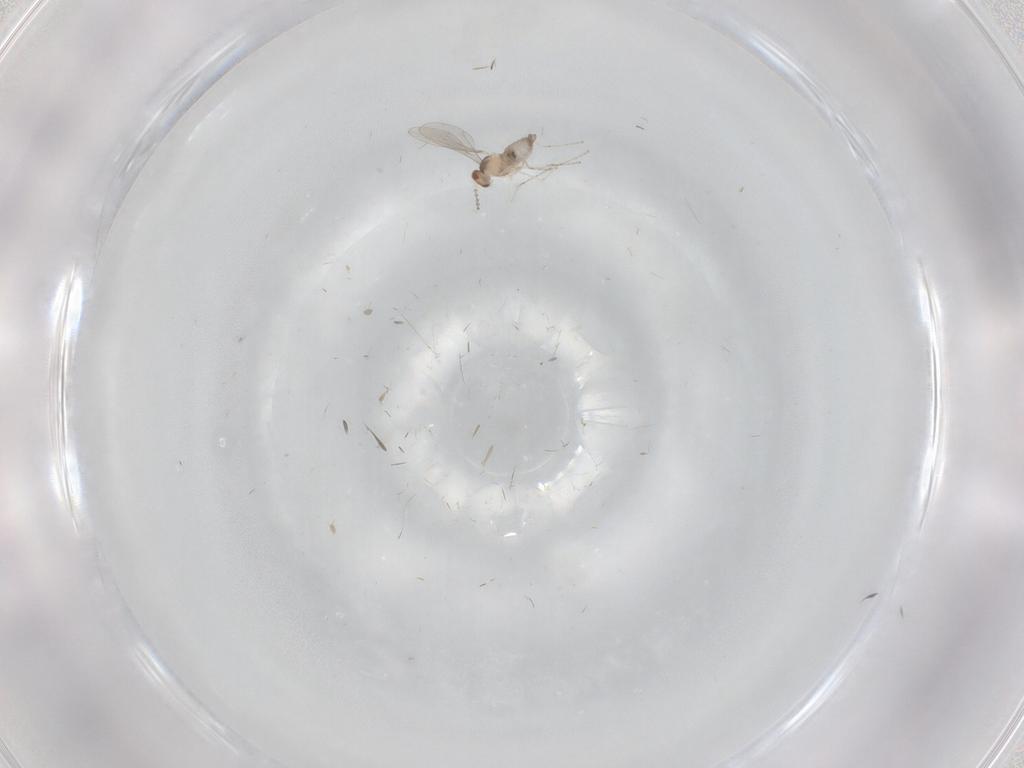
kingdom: Animalia
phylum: Arthropoda
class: Insecta
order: Diptera
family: Cecidomyiidae
